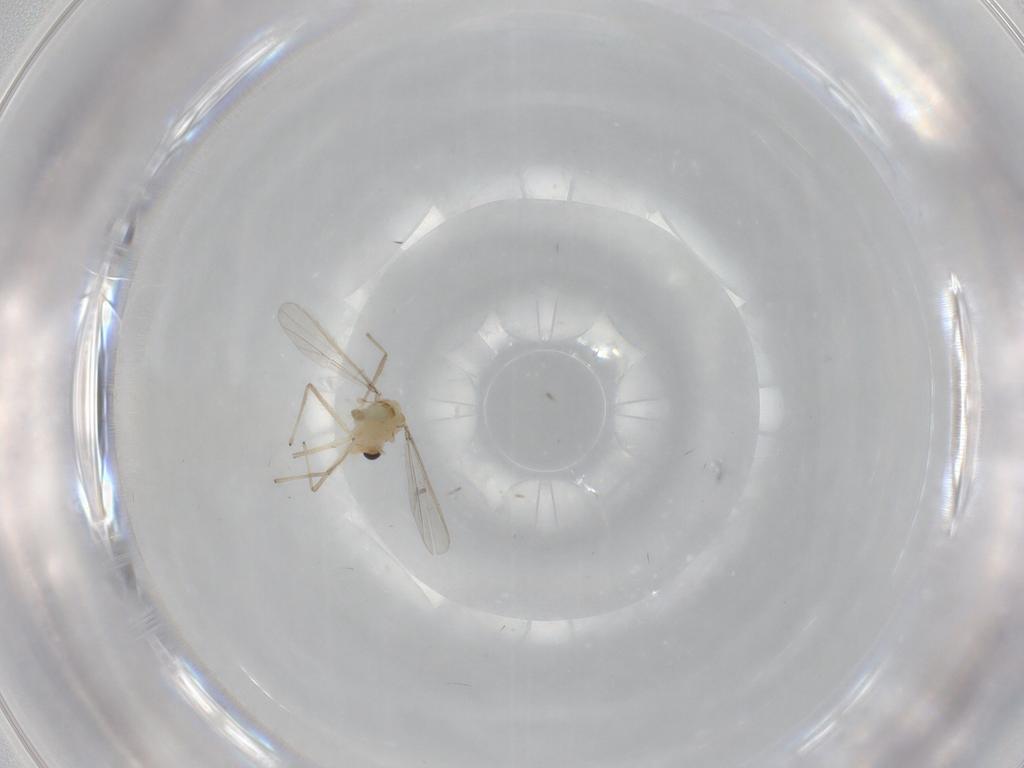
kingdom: Animalia
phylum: Arthropoda
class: Insecta
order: Diptera
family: Chironomidae
